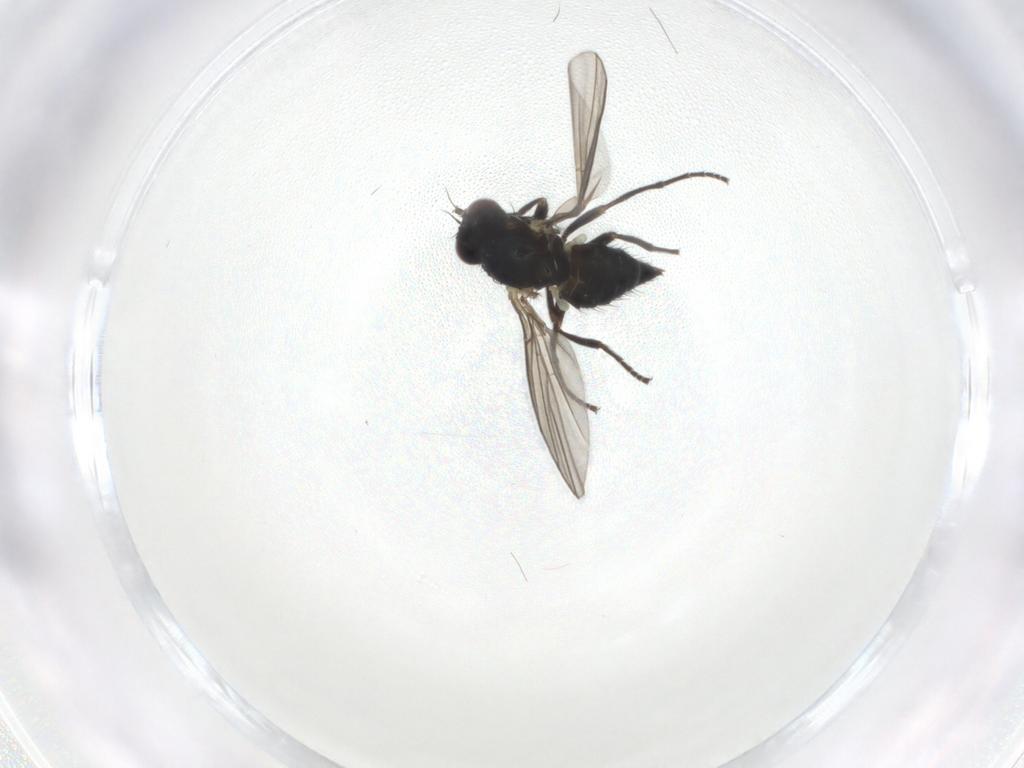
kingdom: Animalia
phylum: Arthropoda
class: Insecta
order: Diptera
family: Agromyzidae
